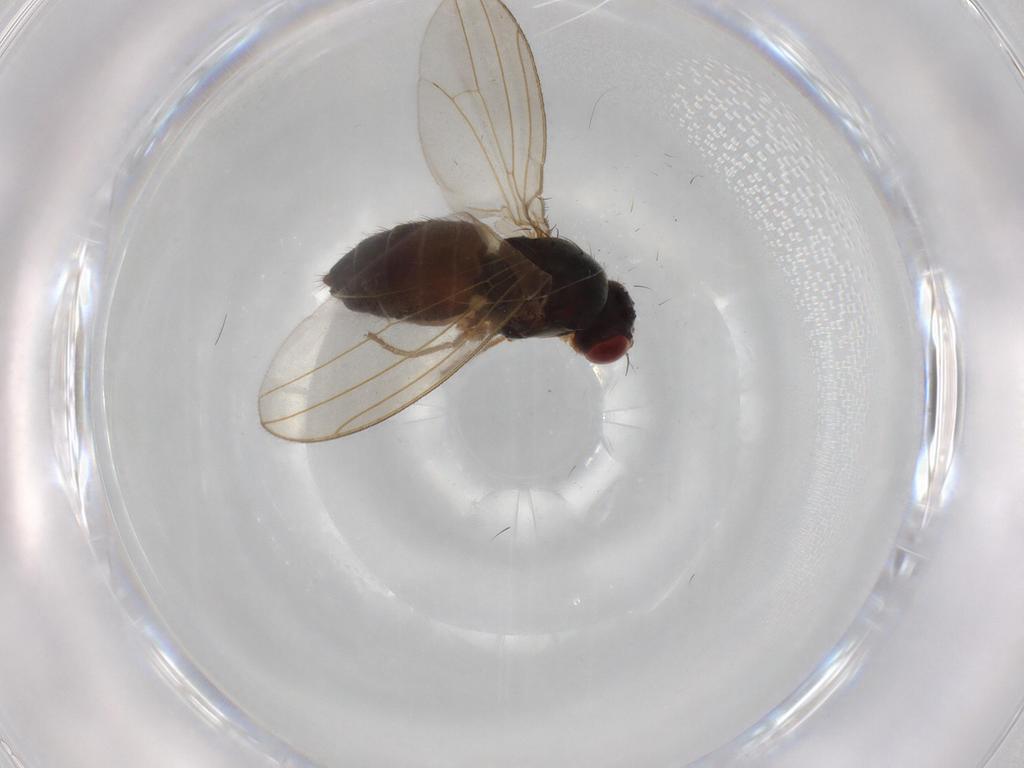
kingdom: Animalia
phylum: Arthropoda
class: Insecta
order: Diptera
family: Drosophilidae
